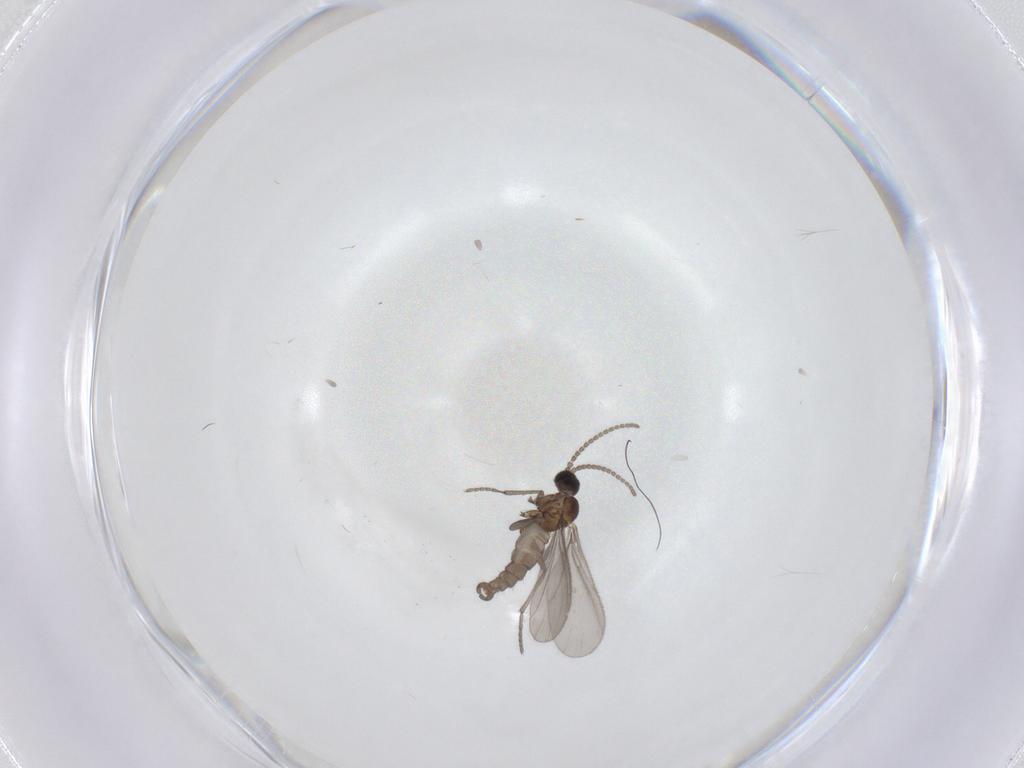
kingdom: Animalia
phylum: Arthropoda
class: Insecta
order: Diptera
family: Sciaridae
